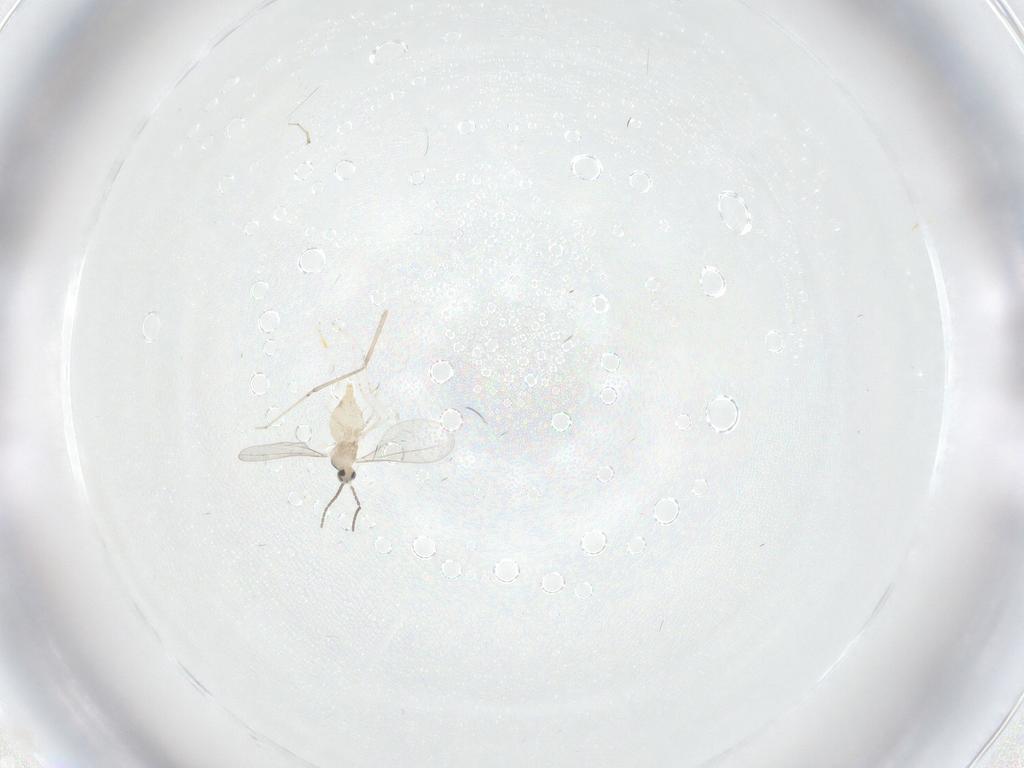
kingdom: Animalia
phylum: Arthropoda
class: Insecta
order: Diptera
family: Cecidomyiidae
